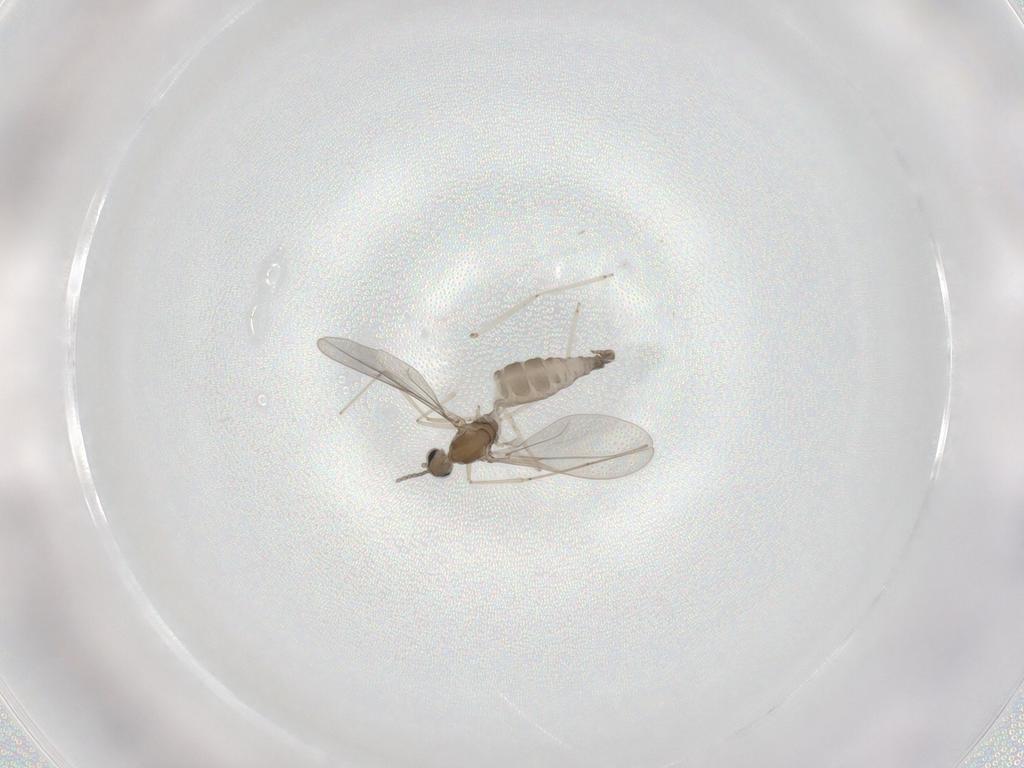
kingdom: Animalia
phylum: Arthropoda
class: Insecta
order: Diptera
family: Cecidomyiidae
